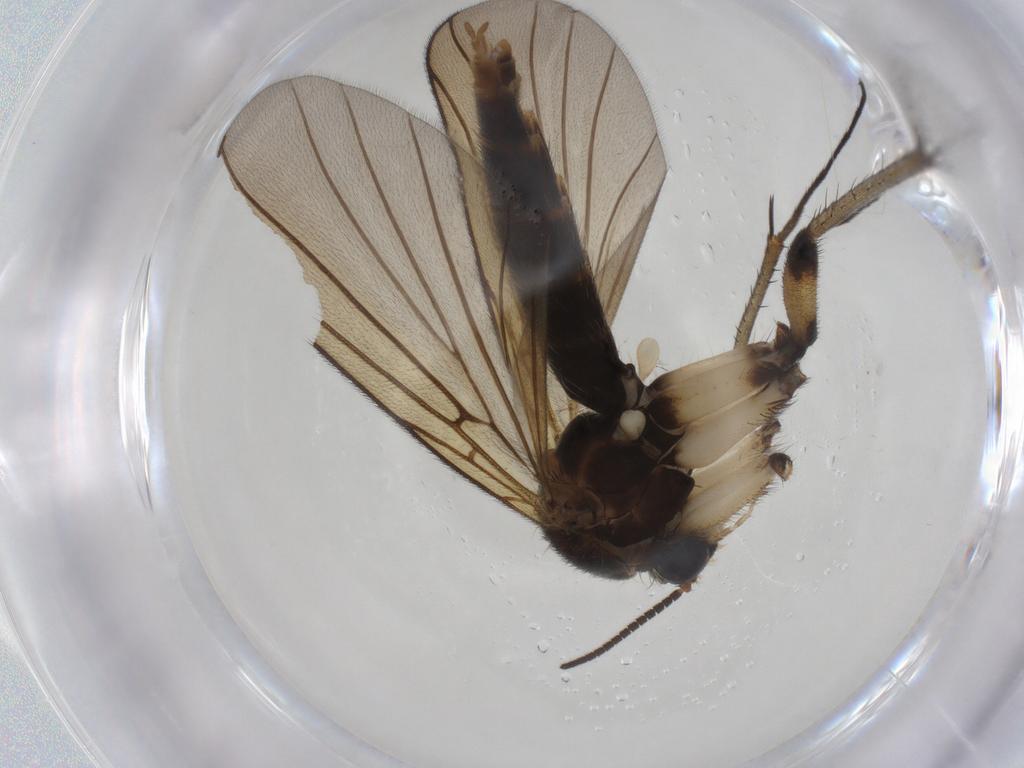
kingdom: Animalia
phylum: Arthropoda
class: Insecta
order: Diptera
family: Mycetophilidae
